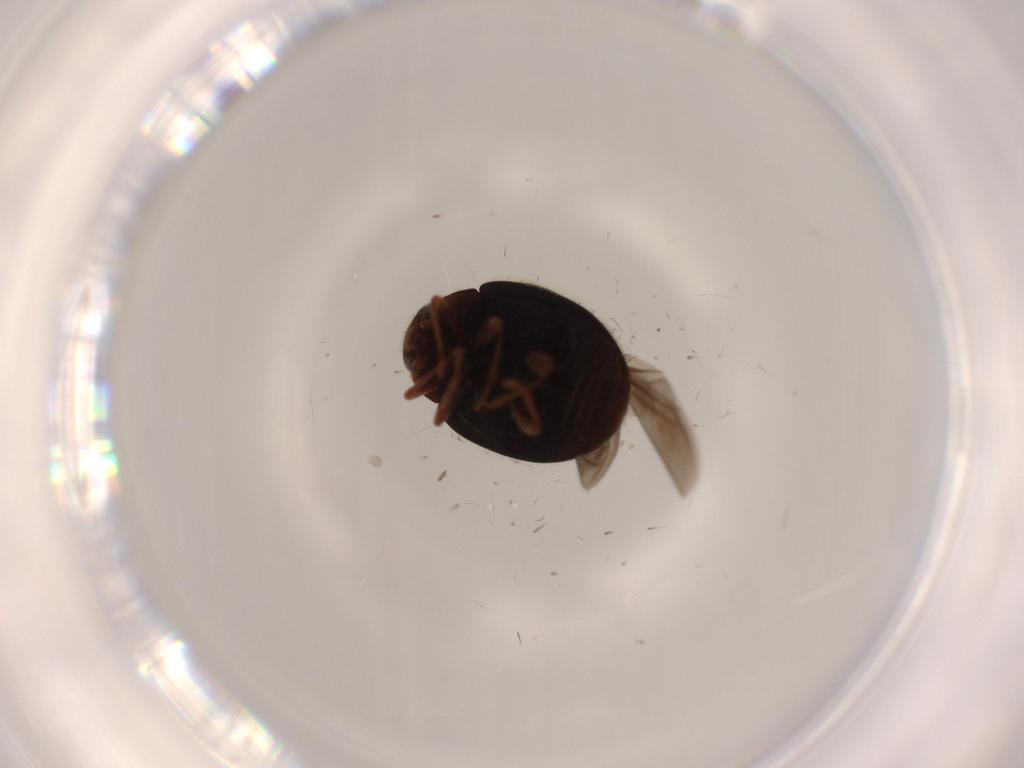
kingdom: Animalia
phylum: Arthropoda
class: Insecta
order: Coleoptera
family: Coccinellidae
